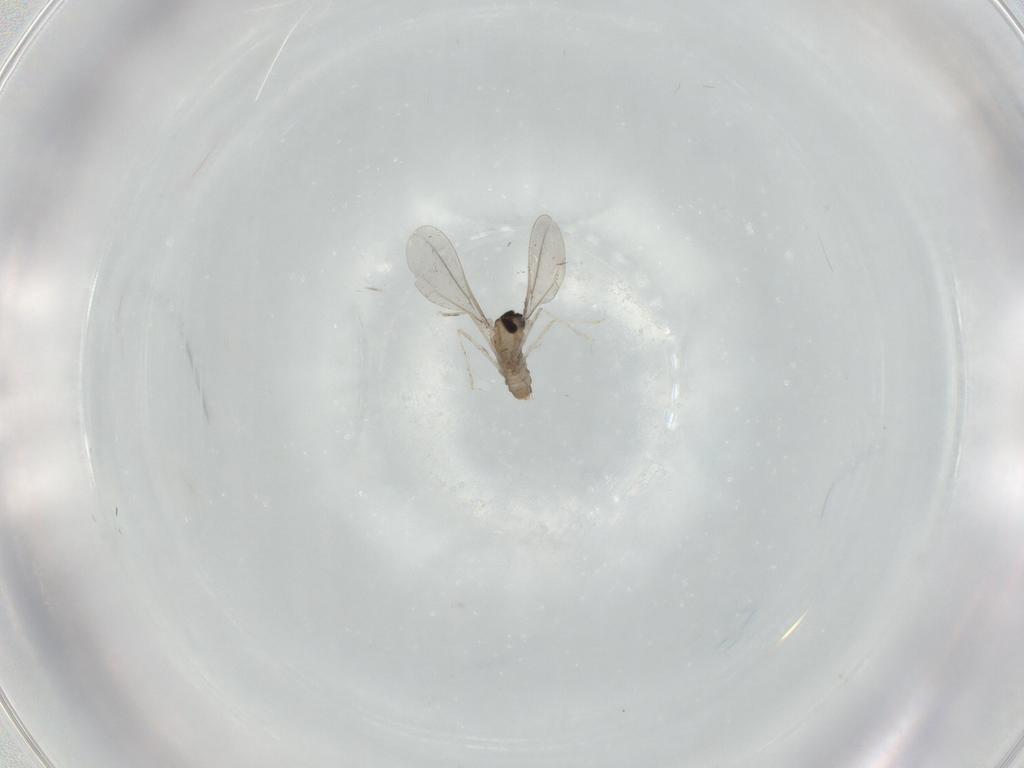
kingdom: Animalia
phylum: Arthropoda
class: Insecta
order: Diptera
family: Cecidomyiidae
